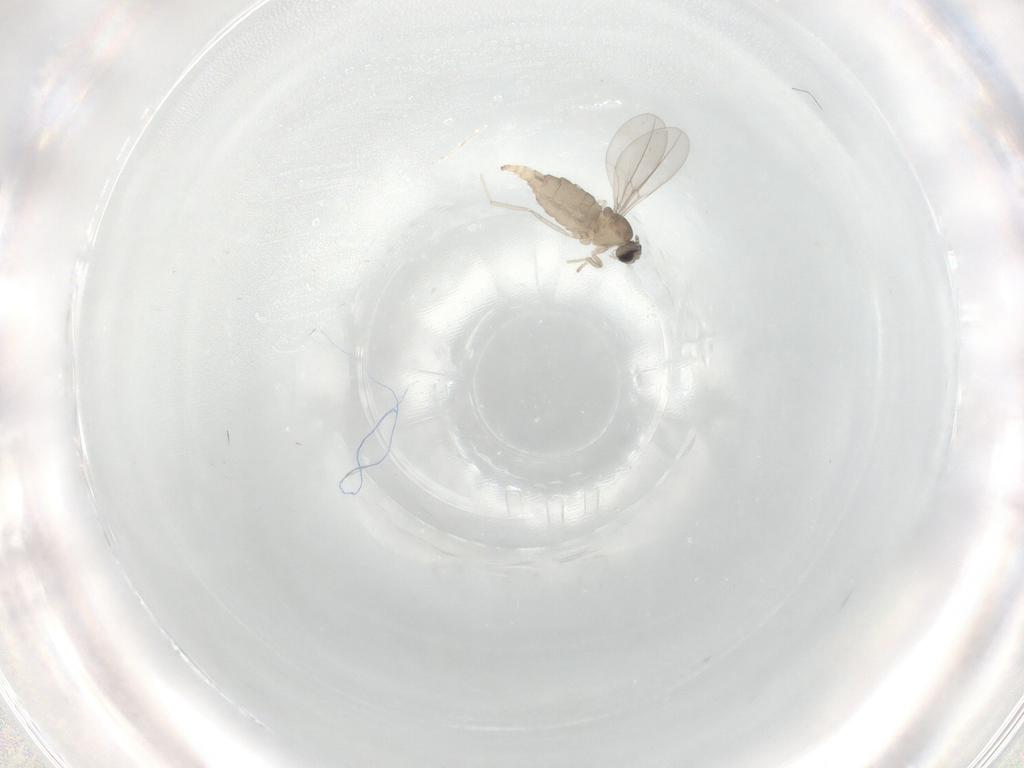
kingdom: Animalia
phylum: Arthropoda
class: Insecta
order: Diptera
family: Cecidomyiidae
